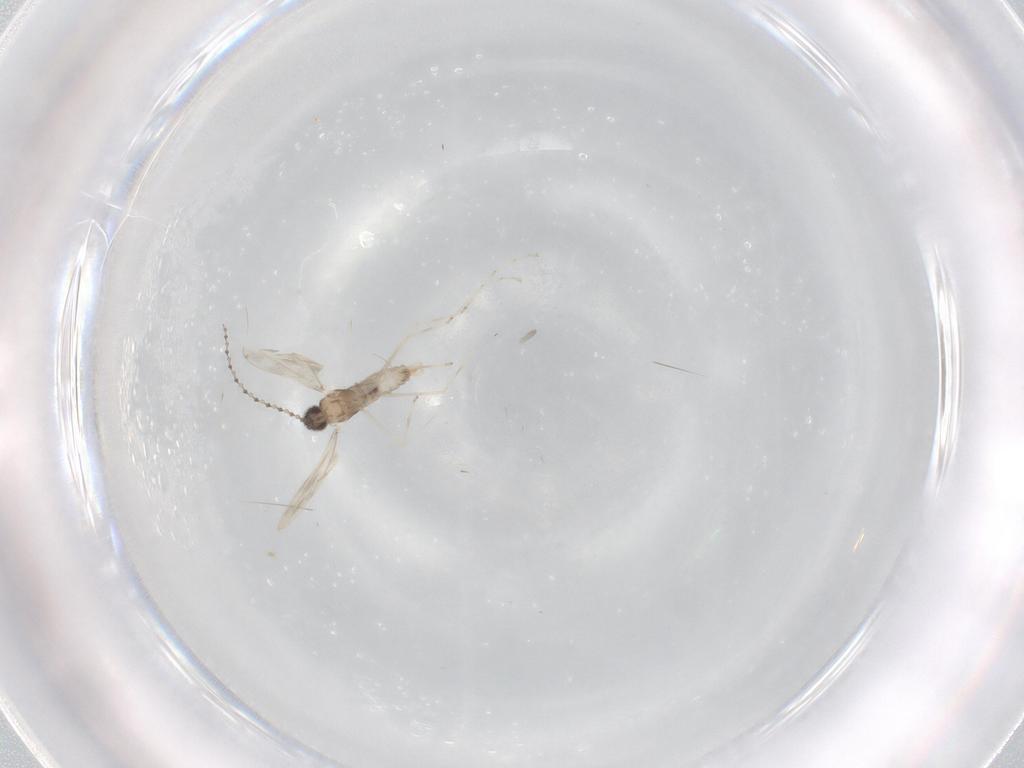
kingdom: Animalia
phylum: Arthropoda
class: Insecta
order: Diptera
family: Cecidomyiidae
